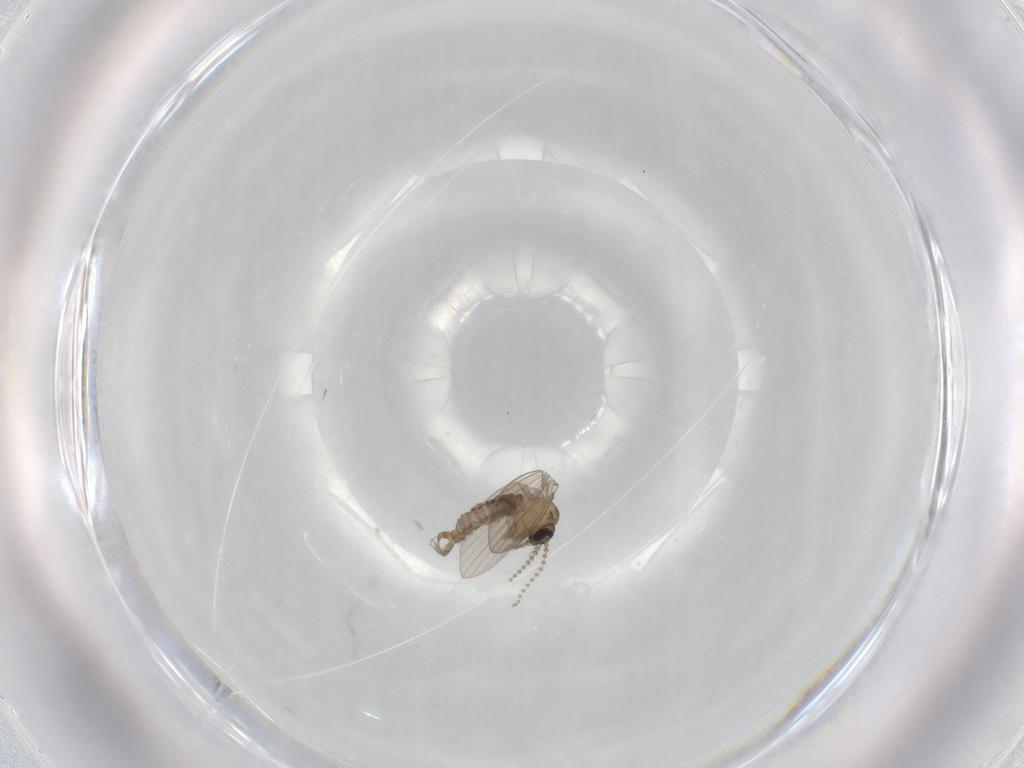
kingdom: Animalia
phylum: Arthropoda
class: Insecta
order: Diptera
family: Psychodidae
